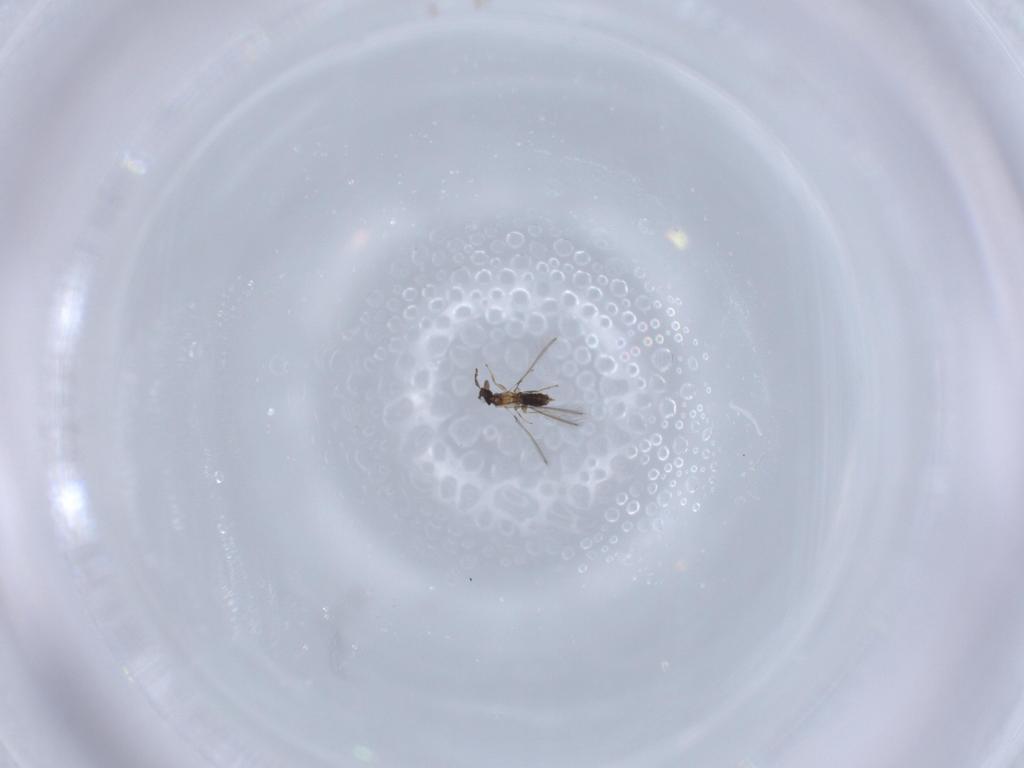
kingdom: Animalia
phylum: Arthropoda
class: Insecta
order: Hymenoptera
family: Mymaridae
